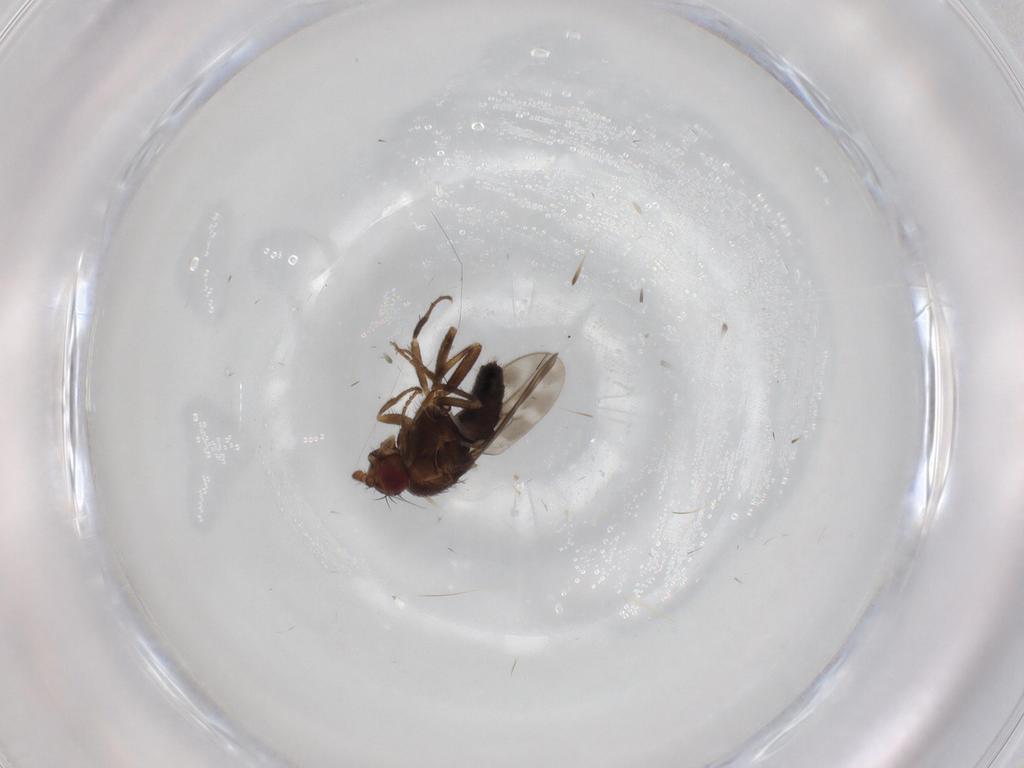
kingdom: Animalia
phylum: Arthropoda
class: Insecta
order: Diptera
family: Sphaeroceridae
